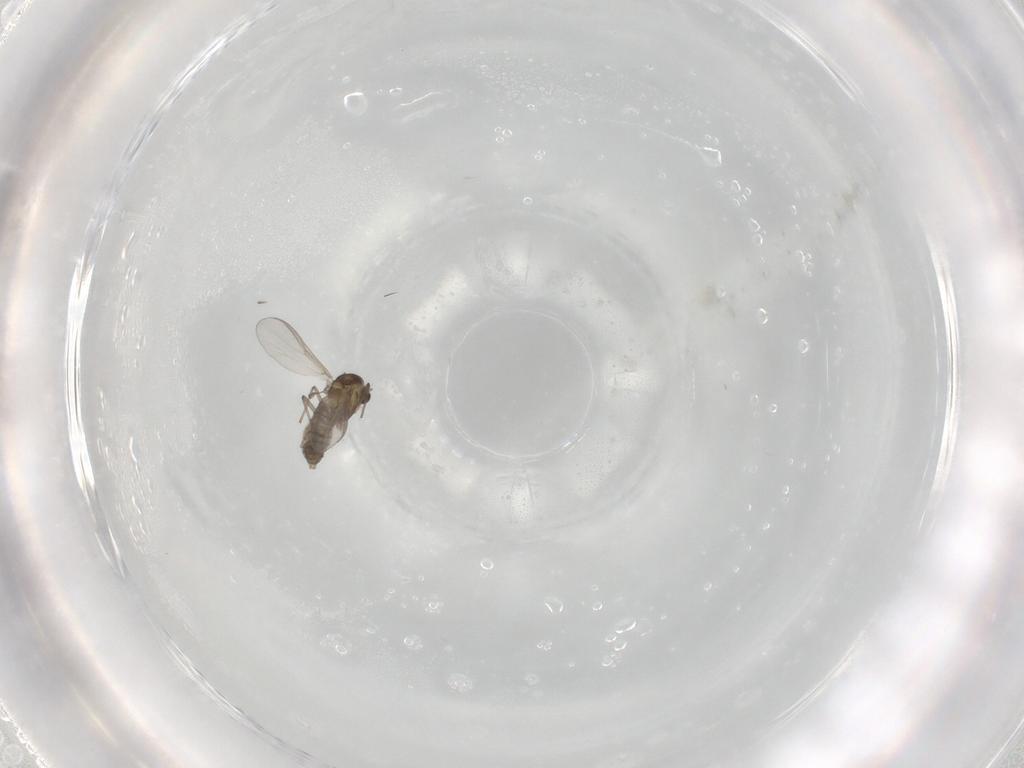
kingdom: Animalia
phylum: Arthropoda
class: Insecta
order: Diptera
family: Chironomidae
